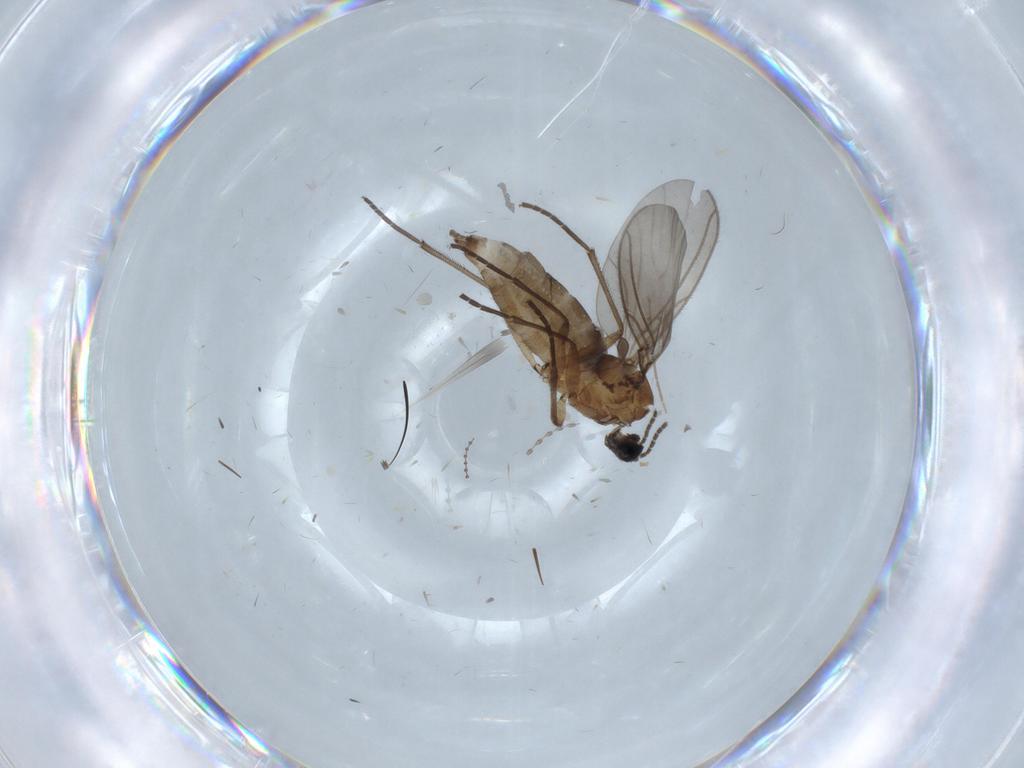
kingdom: Animalia
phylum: Arthropoda
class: Insecta
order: Diptera
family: Sciaridae
